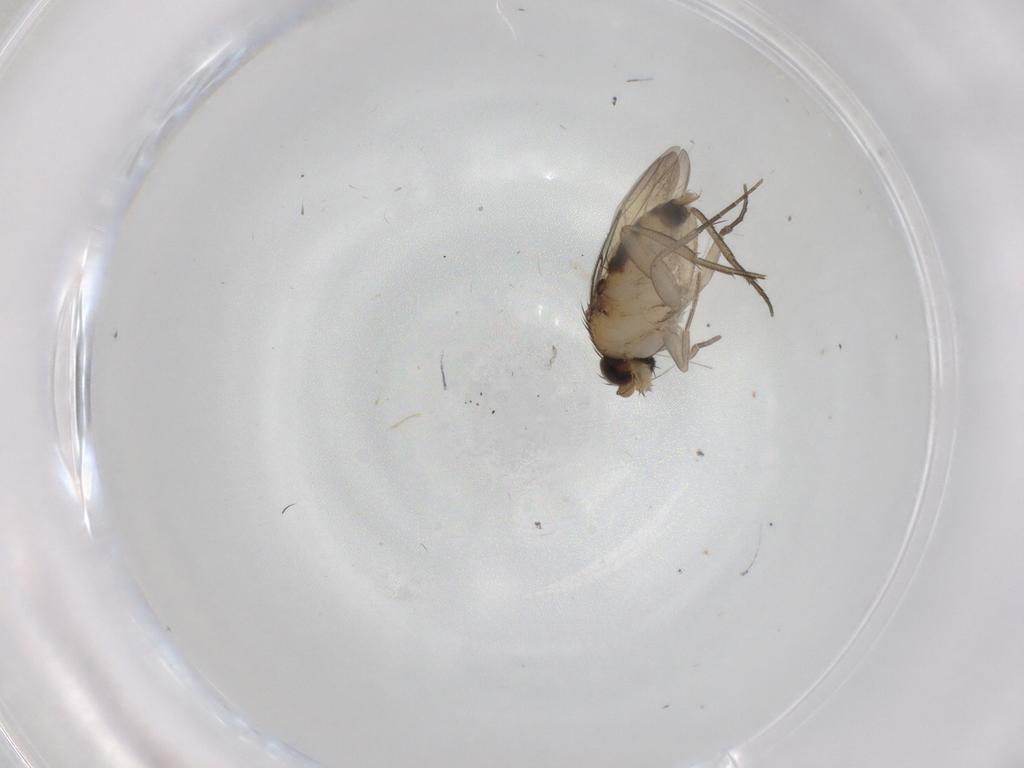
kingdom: Animalia
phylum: Arthropoda
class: Insecta
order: Diptera
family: Phoridae
